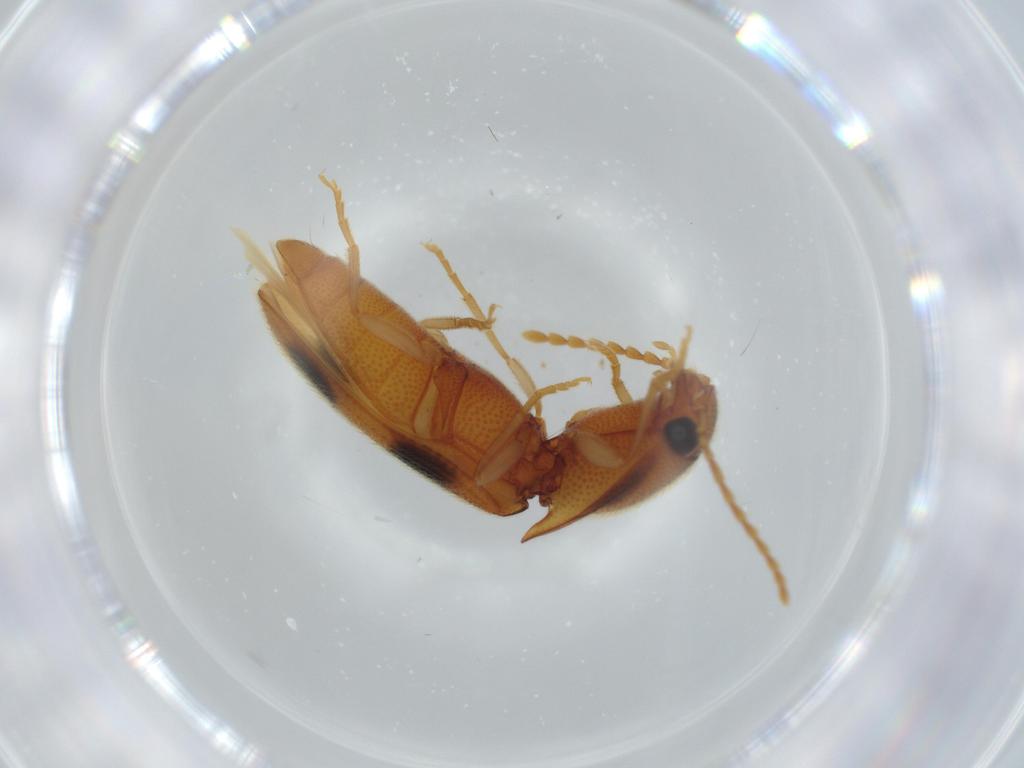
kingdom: Animalia
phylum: Arthropoda
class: Insecta
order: Coleoptera
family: Elateridae
